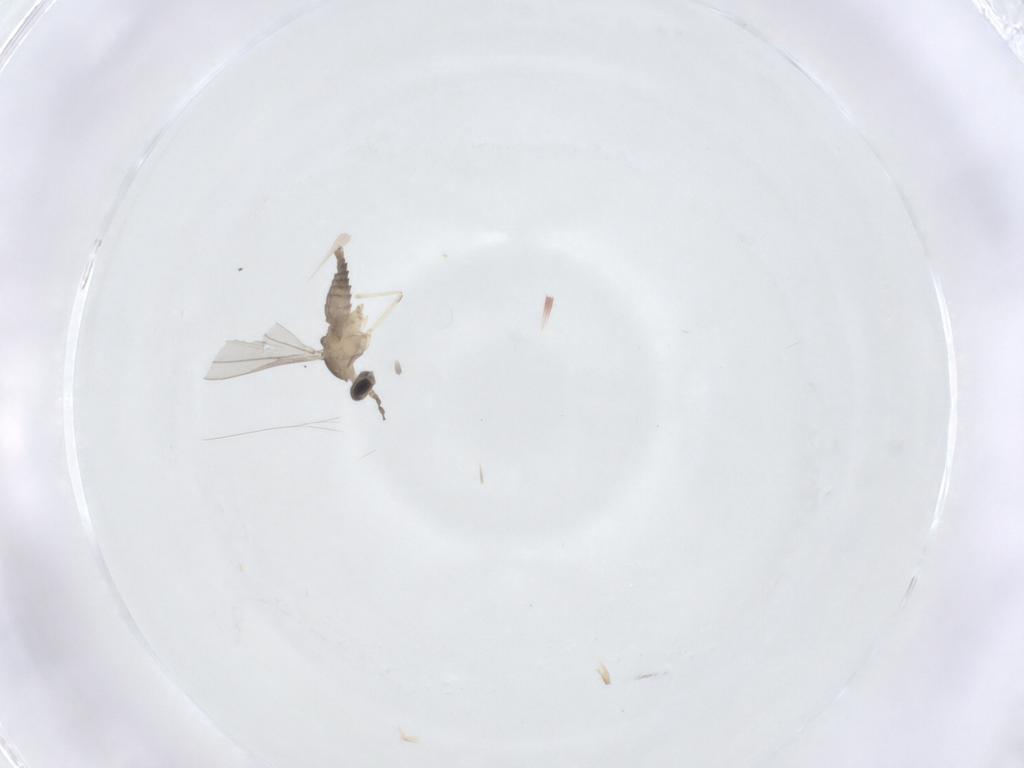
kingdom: Animalia
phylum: Arthropoda
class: Insecta
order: Diptera
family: Cecidomyiidae
